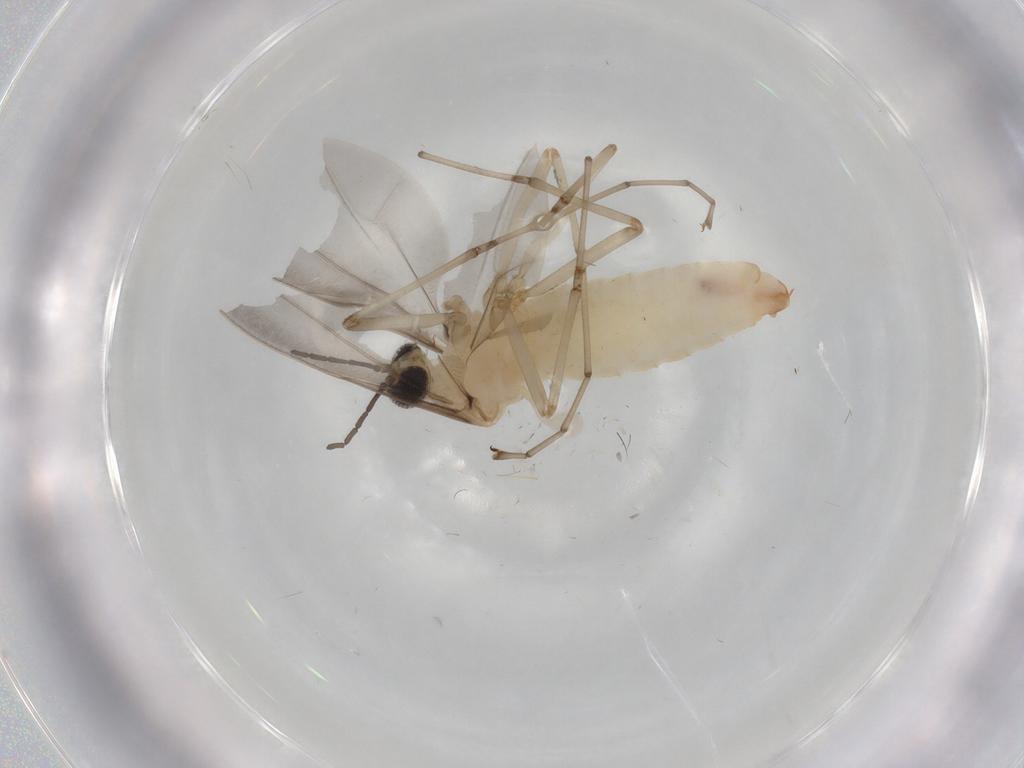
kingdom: Animalia
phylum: Arthropoda
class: Insecta
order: Diptera
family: Cecidomyiidae
